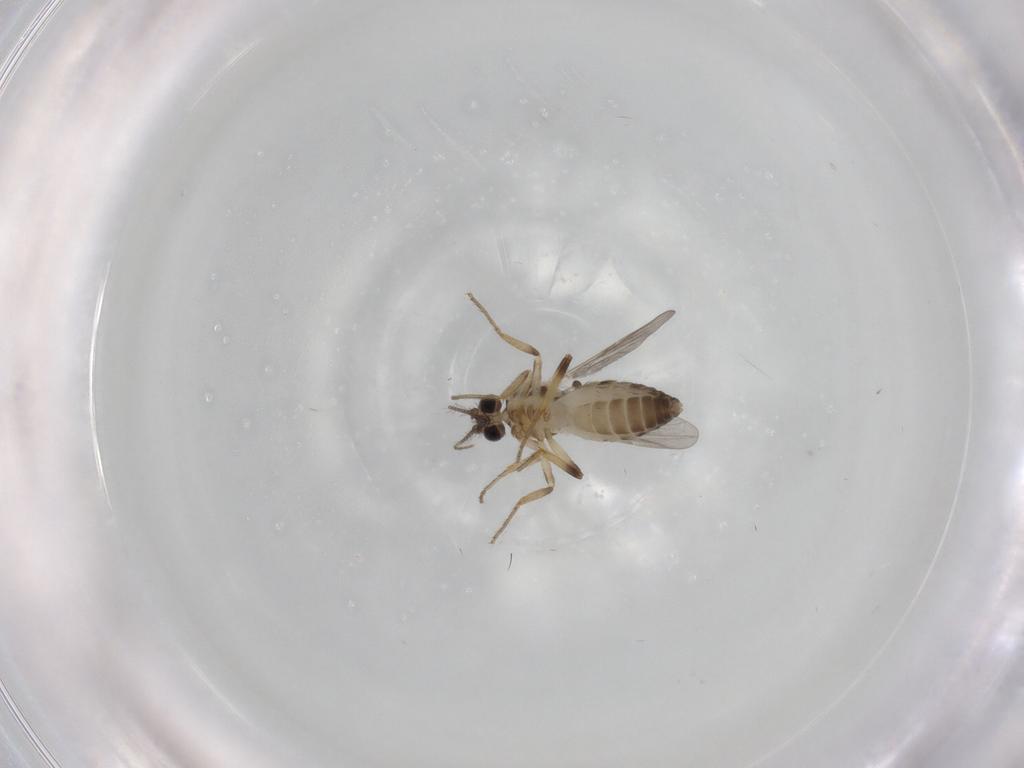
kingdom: Animalia
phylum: Arthropoda
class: Insecta
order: Diptera
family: Ceratopogonidae
